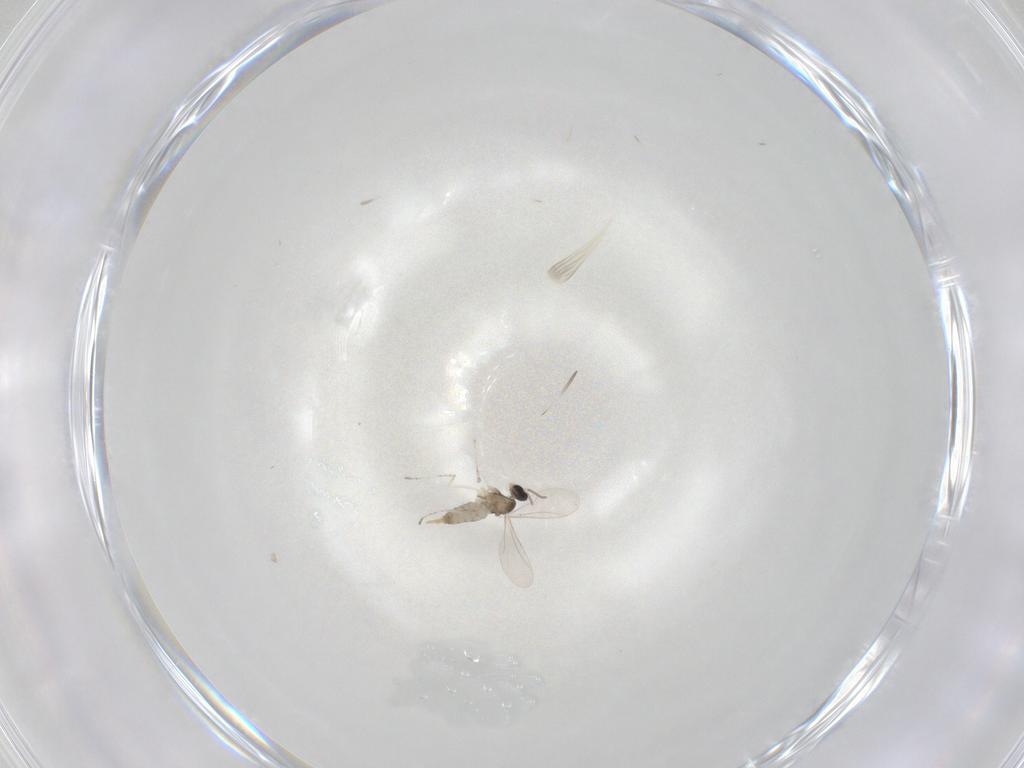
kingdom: Animalia
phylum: Arthropoda
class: Insecta
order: Diptera
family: Cecidomyiidae
